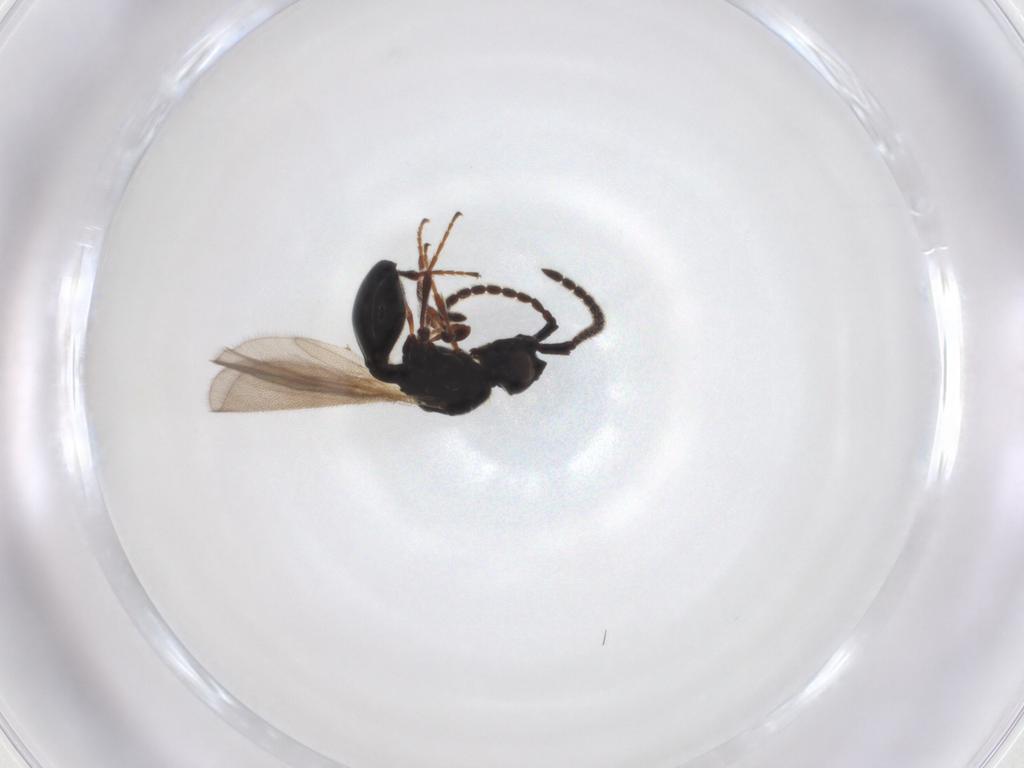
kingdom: Animalia
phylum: Arthropoda
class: Insecta
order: Hymenoptera
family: Diapriidae
